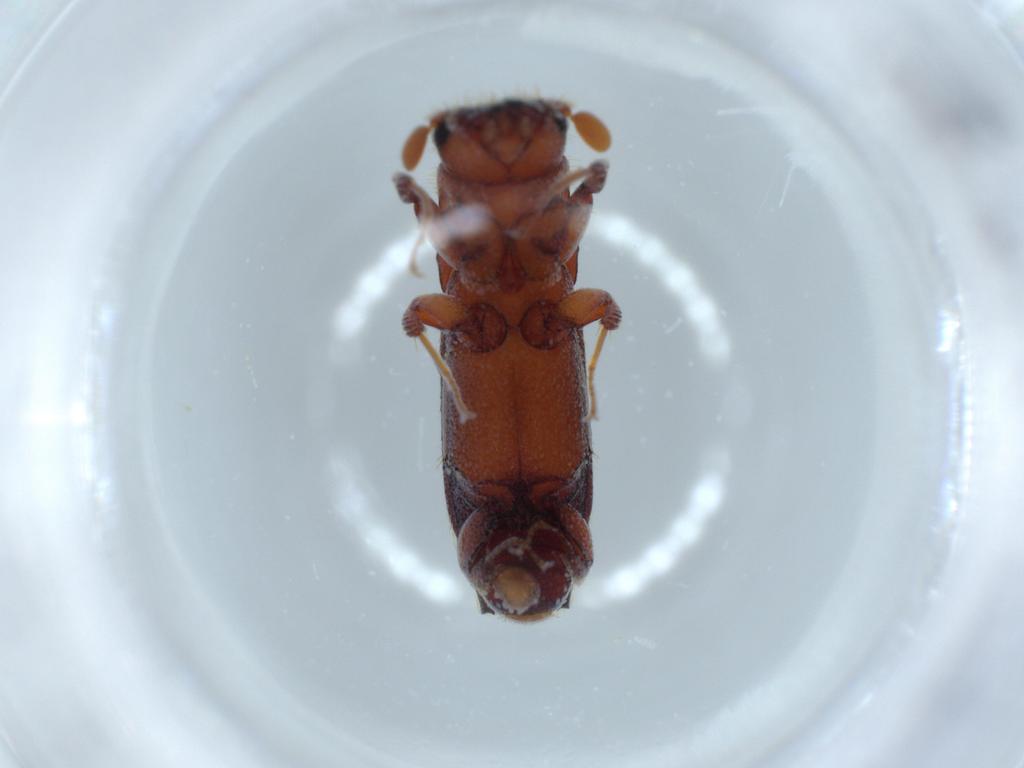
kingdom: Animalia
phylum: Arthropoda
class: Insecta
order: Coleoptera
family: Curculionidae
